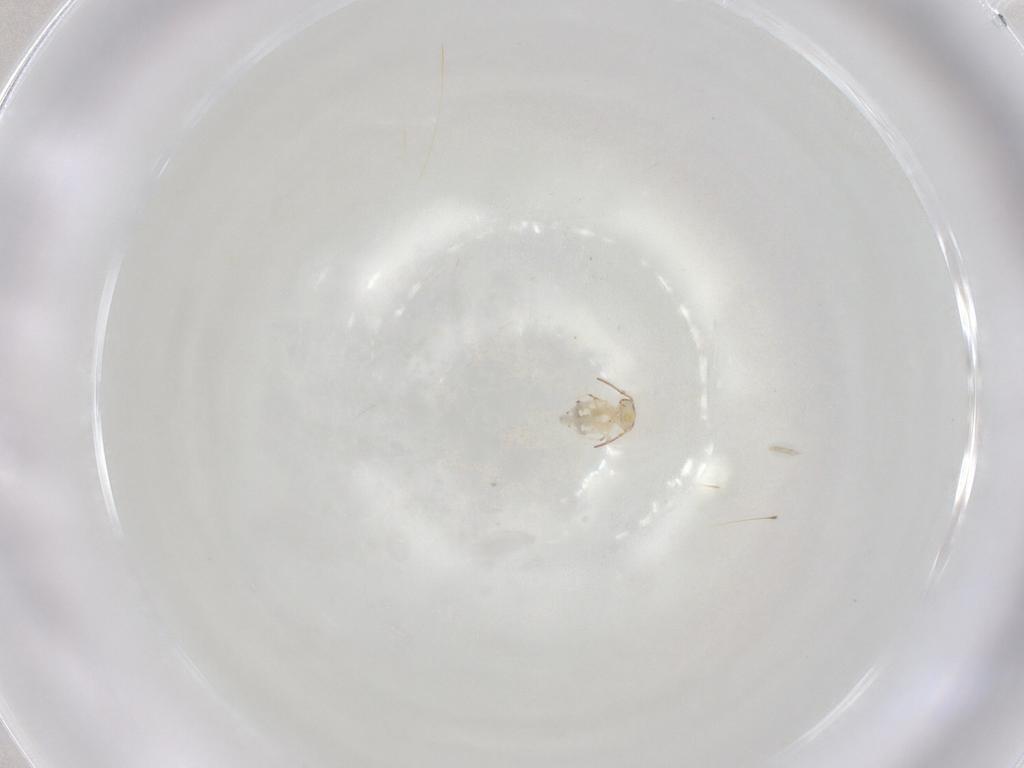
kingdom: Animalia
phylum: Arthropoda
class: Collembola
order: Symphypleona
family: Bourletiellidae
